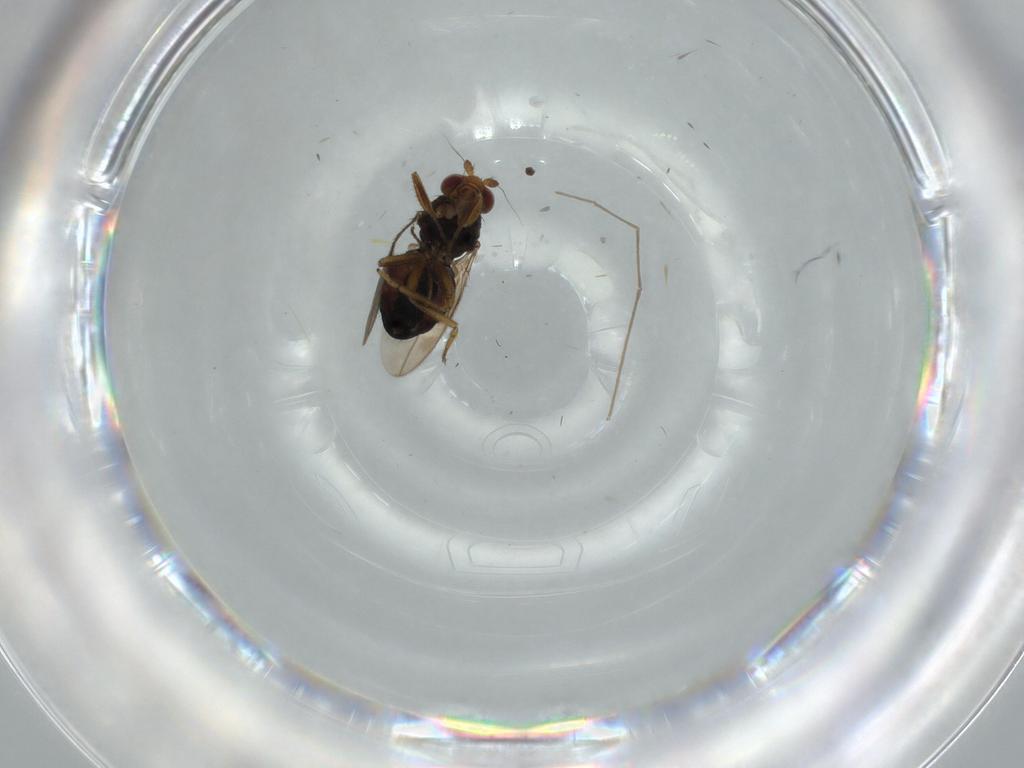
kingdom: Animalia
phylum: Arthropoda
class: Insecta
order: Diptera
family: Sphaeroceridae
